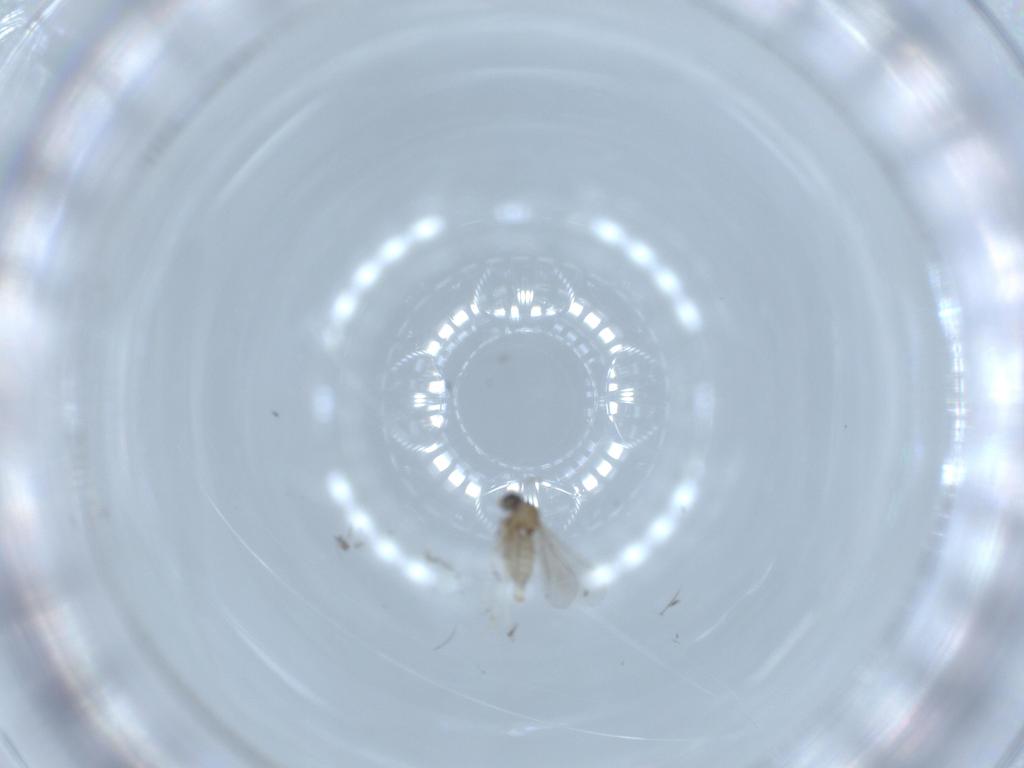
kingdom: Animalia
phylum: Arthropoda
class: Insecta
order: Diptera
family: Cecidomyiidae
